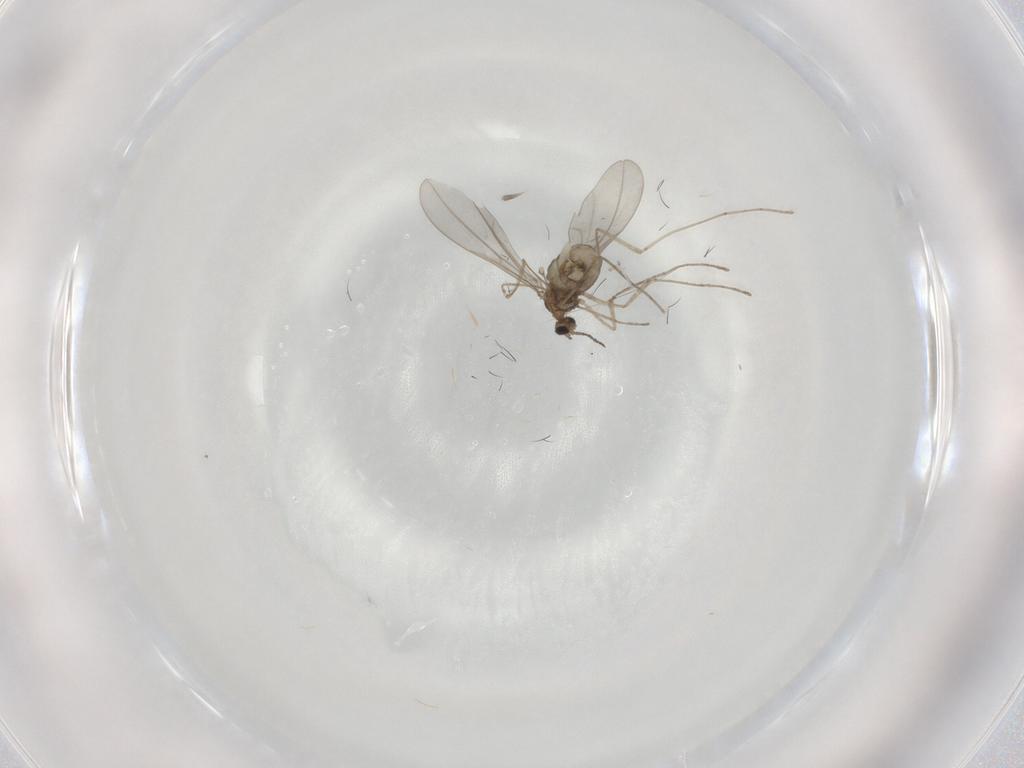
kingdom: Animalia
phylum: Arthropoda
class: Insecta
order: Diptera
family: Cecidomyiidae
